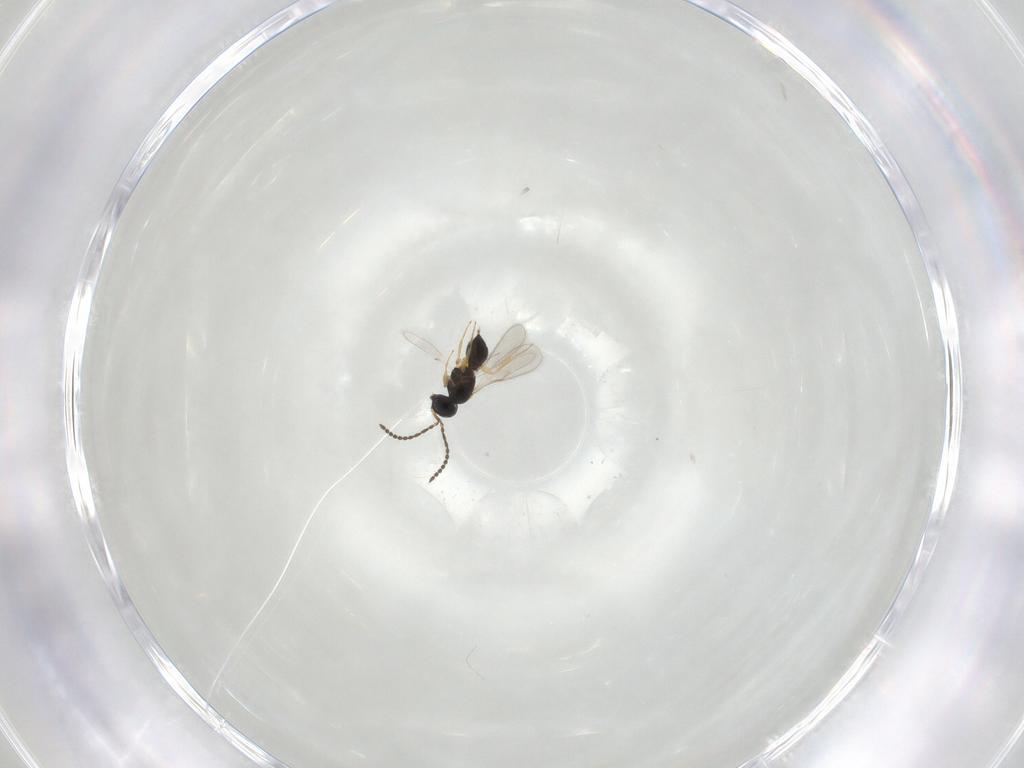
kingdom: Animalia
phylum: Arthropoda
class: Insecta
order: Hymenoptera
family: Scelionidae
